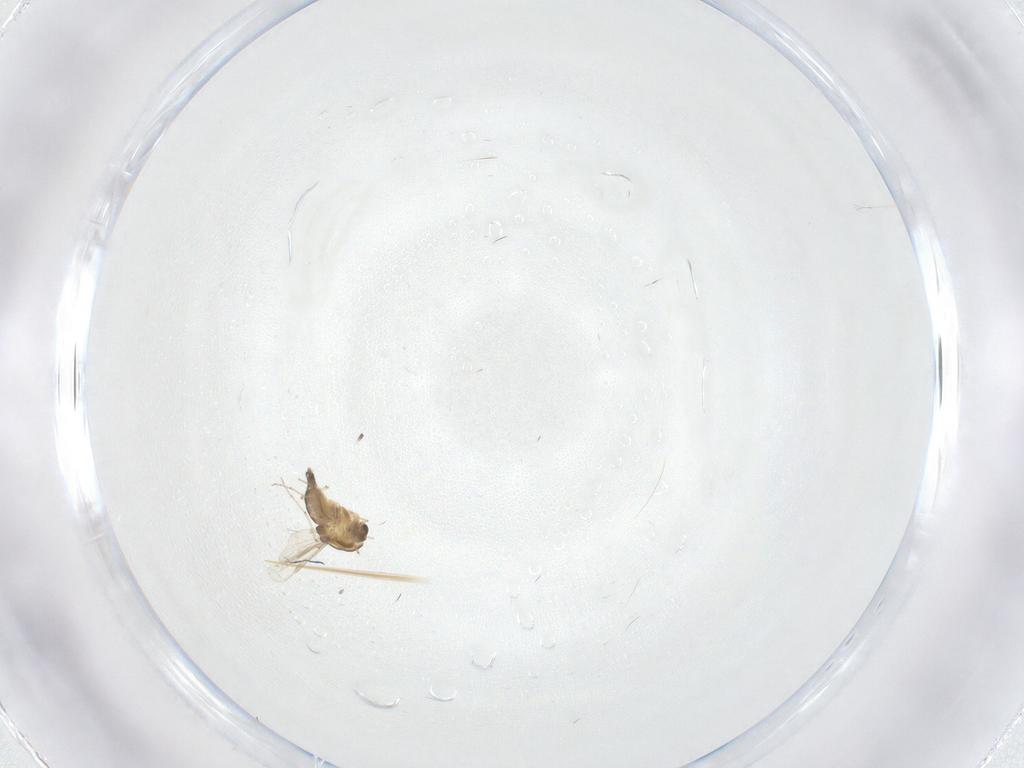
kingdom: Animalia
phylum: Arthropoda
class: Insecta
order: Diptera
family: Chironomidae
